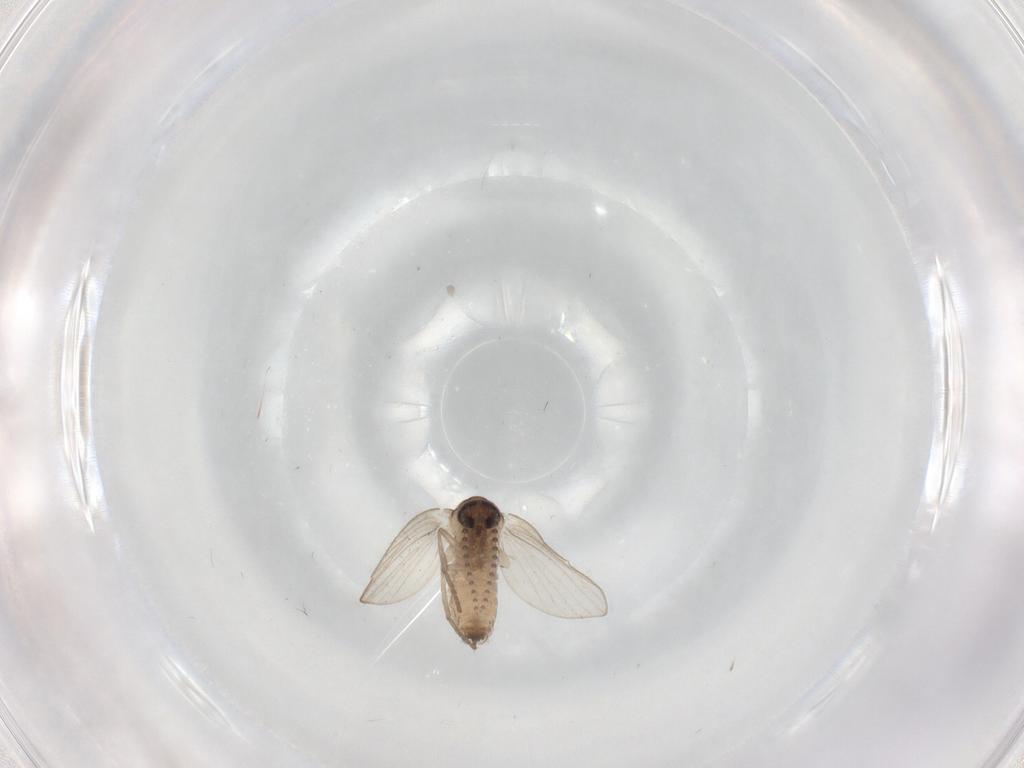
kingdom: Animalia
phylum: Arthropoda
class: Insecta
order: Diptera
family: Psychodidae
